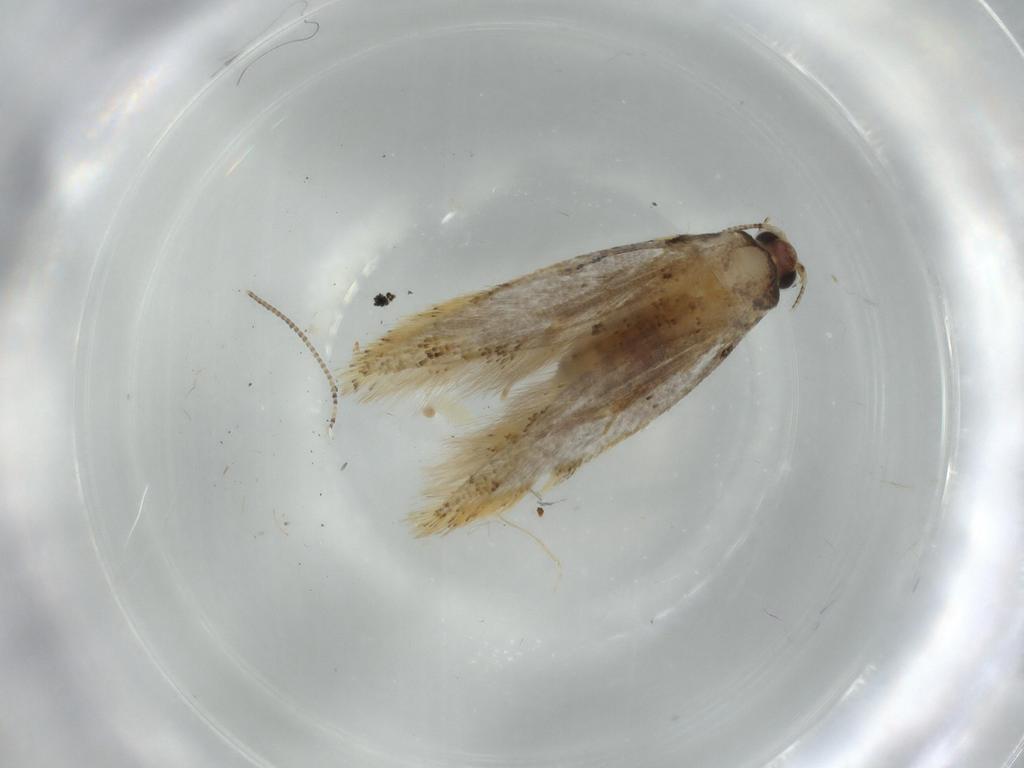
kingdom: Animalia
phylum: Arthropoda
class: Insecta
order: Lepidoptera
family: Tineidae
